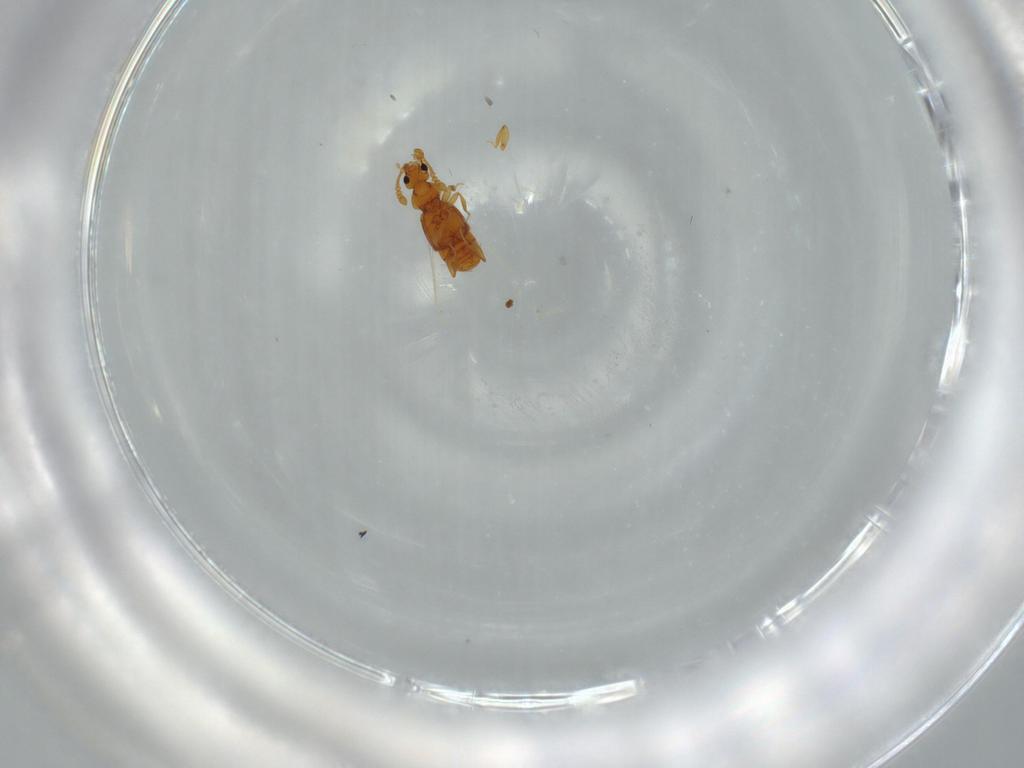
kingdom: Animalia
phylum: Arthropoda
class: Insecta
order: Coleoptera
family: Staphylinidae
